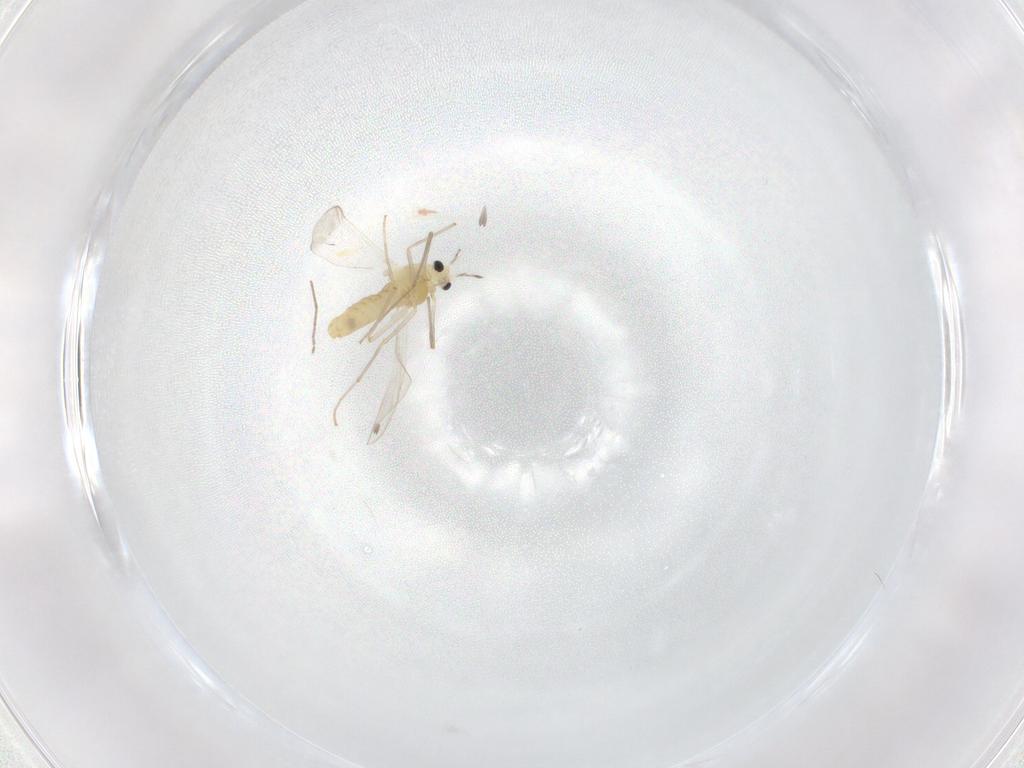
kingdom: Animalia
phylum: Arthropoda
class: Insecta
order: Diptera
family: Chironomidae
